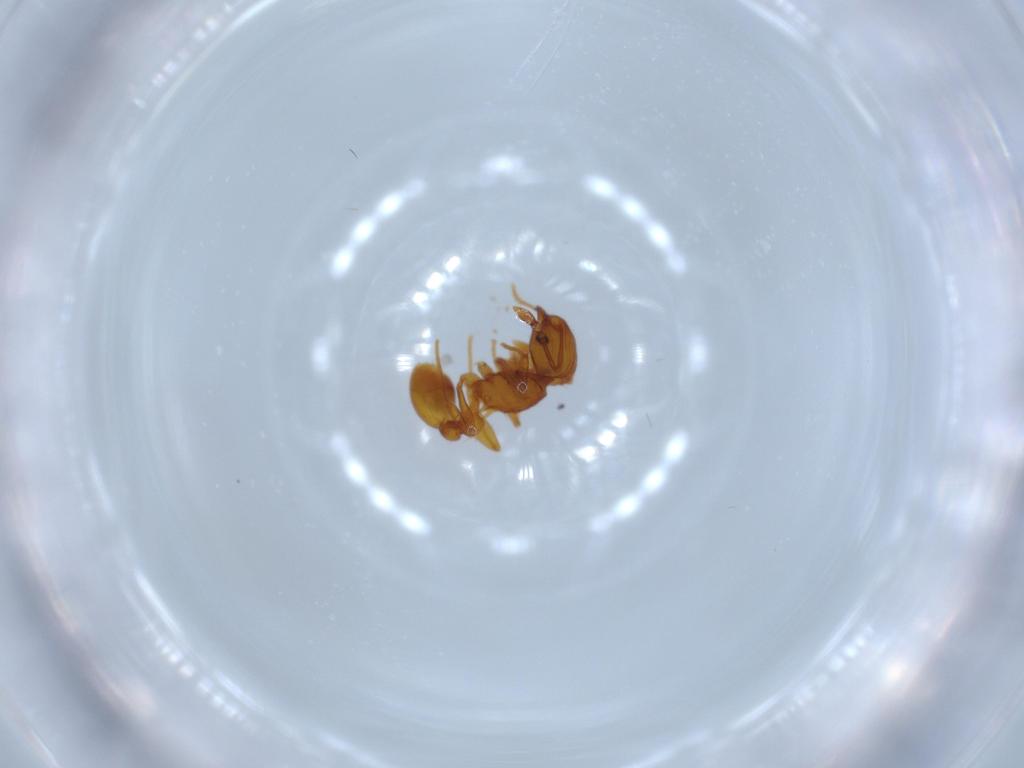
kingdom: Animalia
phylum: Arthropoda
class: Insecta
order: Hymenoptera
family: Formicidae
